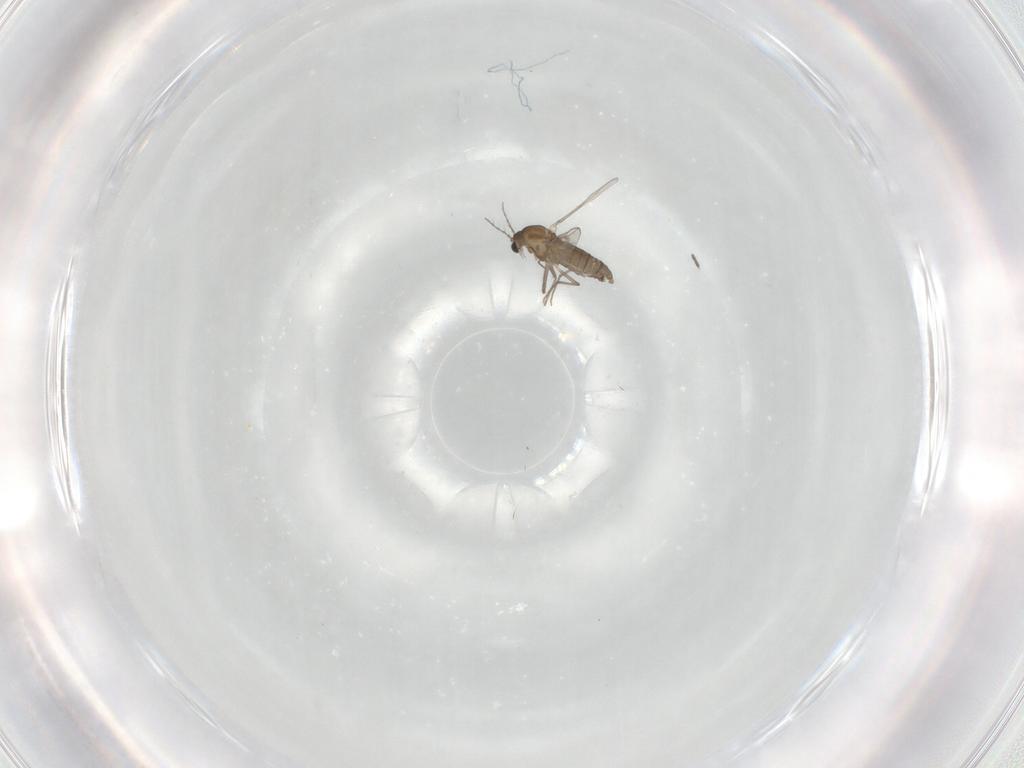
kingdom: Animalia
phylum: Arthropoda
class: Insecta
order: Diptera
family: Chironomidae
